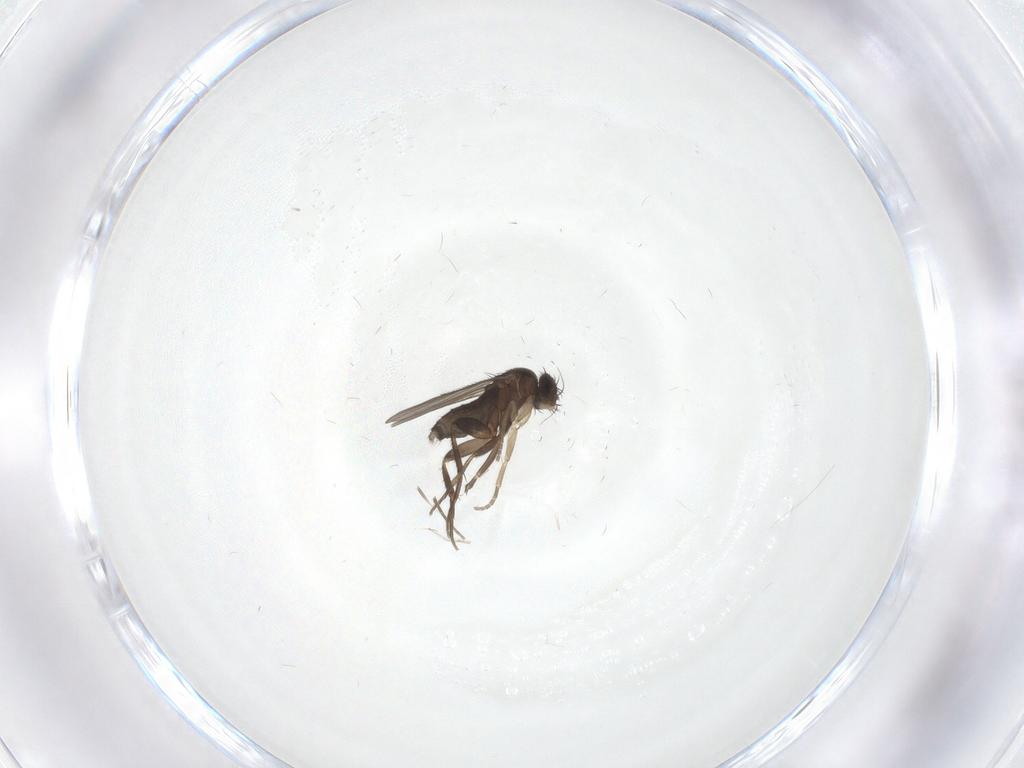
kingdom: Animalia
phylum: Arthropoda
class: Insecta
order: Diptera
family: Phoridae
